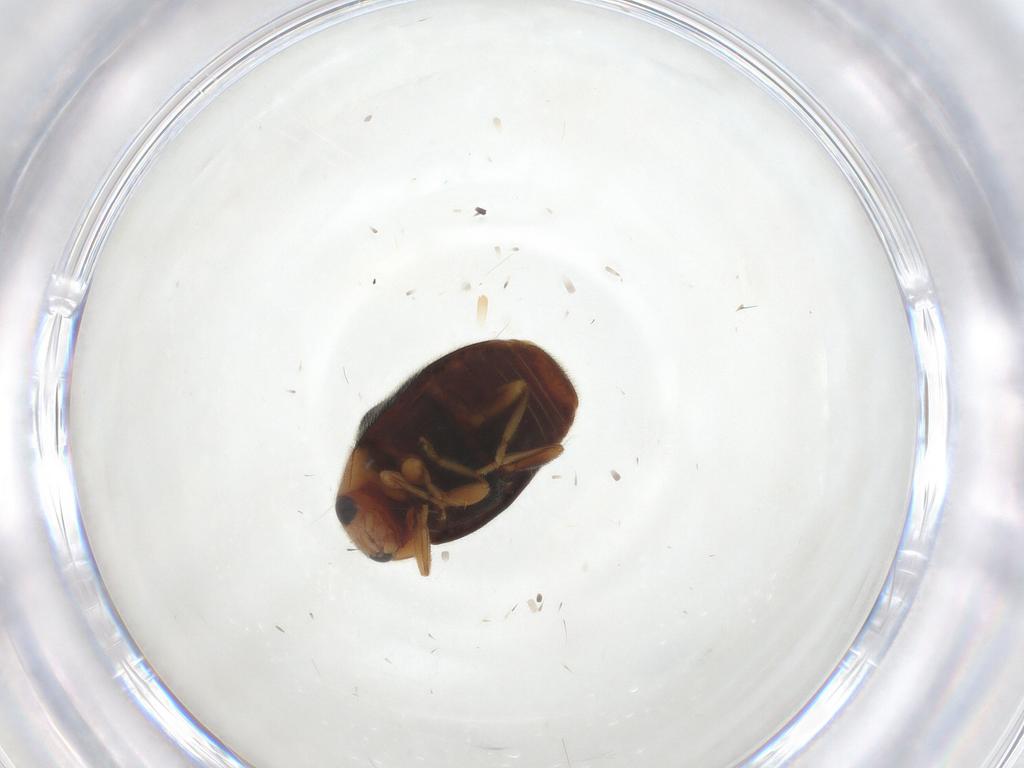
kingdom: Animalia
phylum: Arthropoda
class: Insecta
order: Coleoptera
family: Coccinellidae
